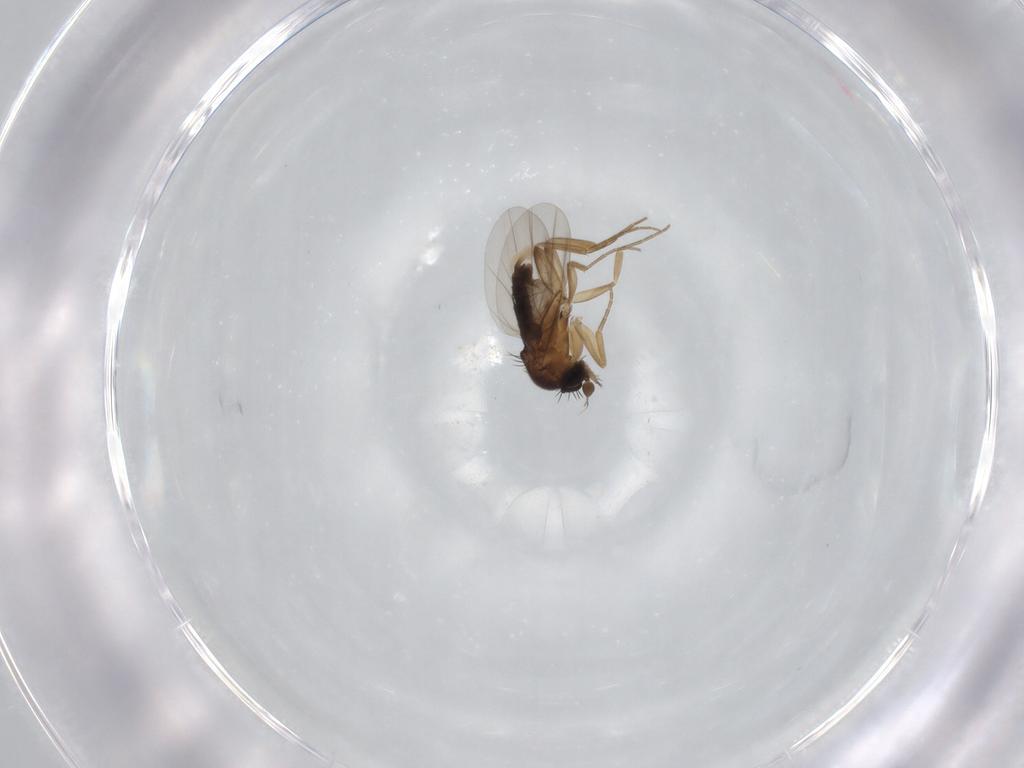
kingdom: Animalia
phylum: Arthropoda
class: Insecta
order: Diptera
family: Phoridae
